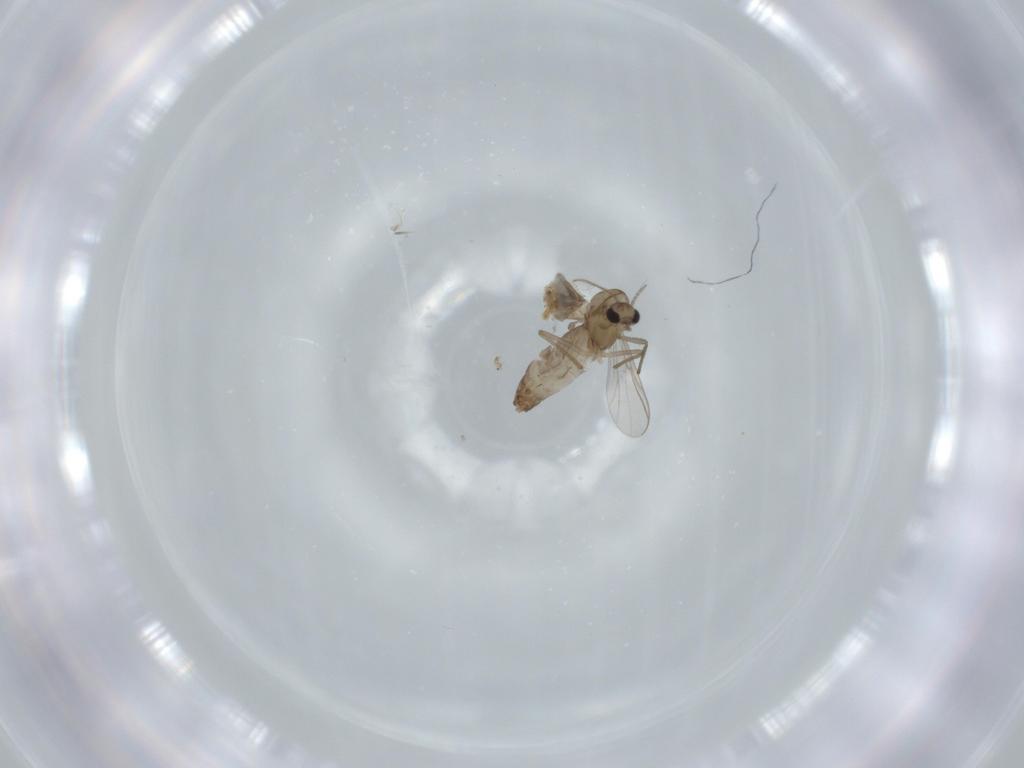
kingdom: Animalia
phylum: Arthropoda
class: Insecta
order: Diptera
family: Chironomidae
